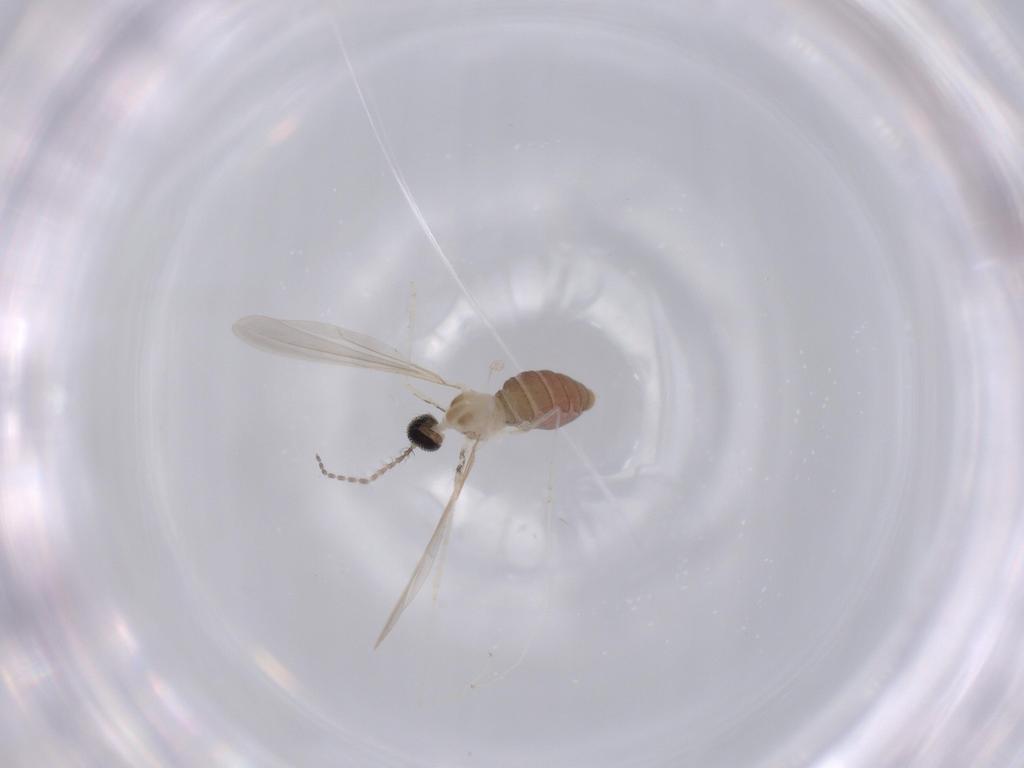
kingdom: Animalia
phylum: Arthropoda
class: Insecta
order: Diptera
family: Cecidomyiidae
